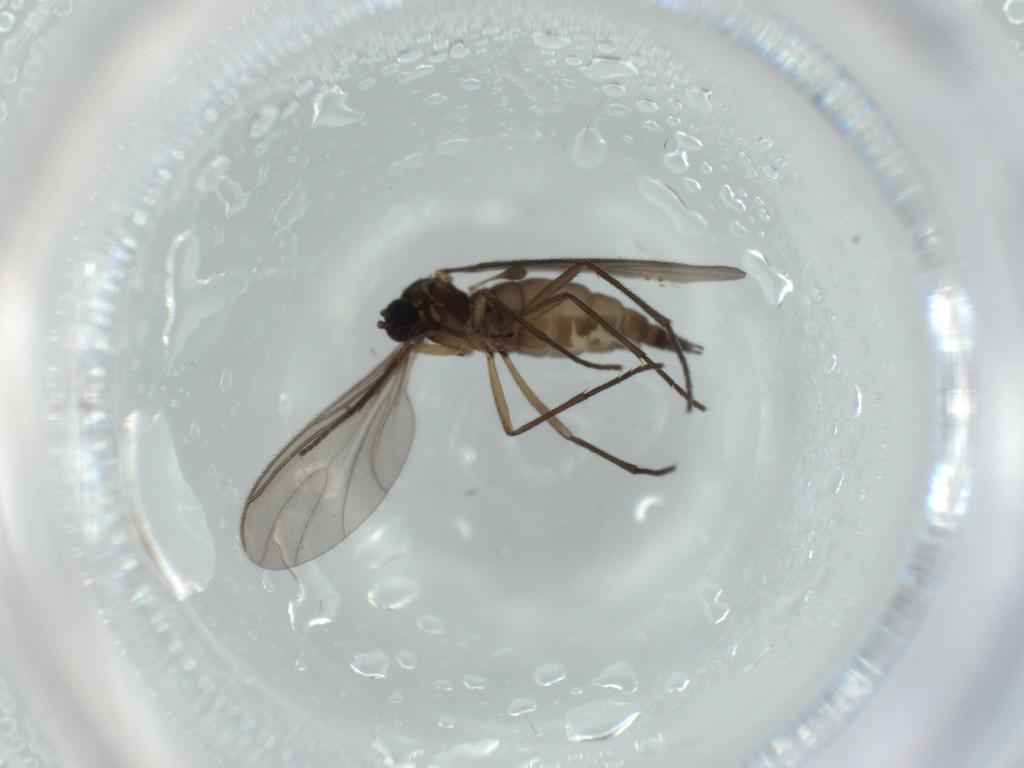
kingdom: Animalia
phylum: Arthropoda
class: Insecta
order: Diptera
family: Sciaridae
